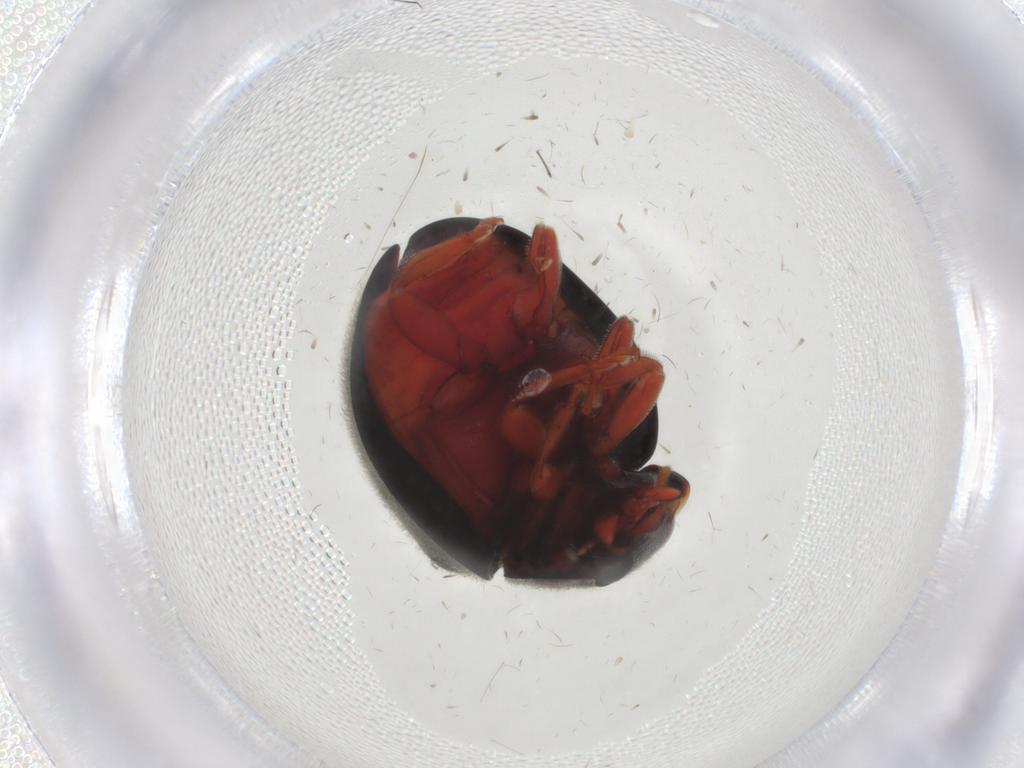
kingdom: Animalia
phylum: Arthropoda
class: Insecta
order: Coleoptera
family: Coccinellidae
